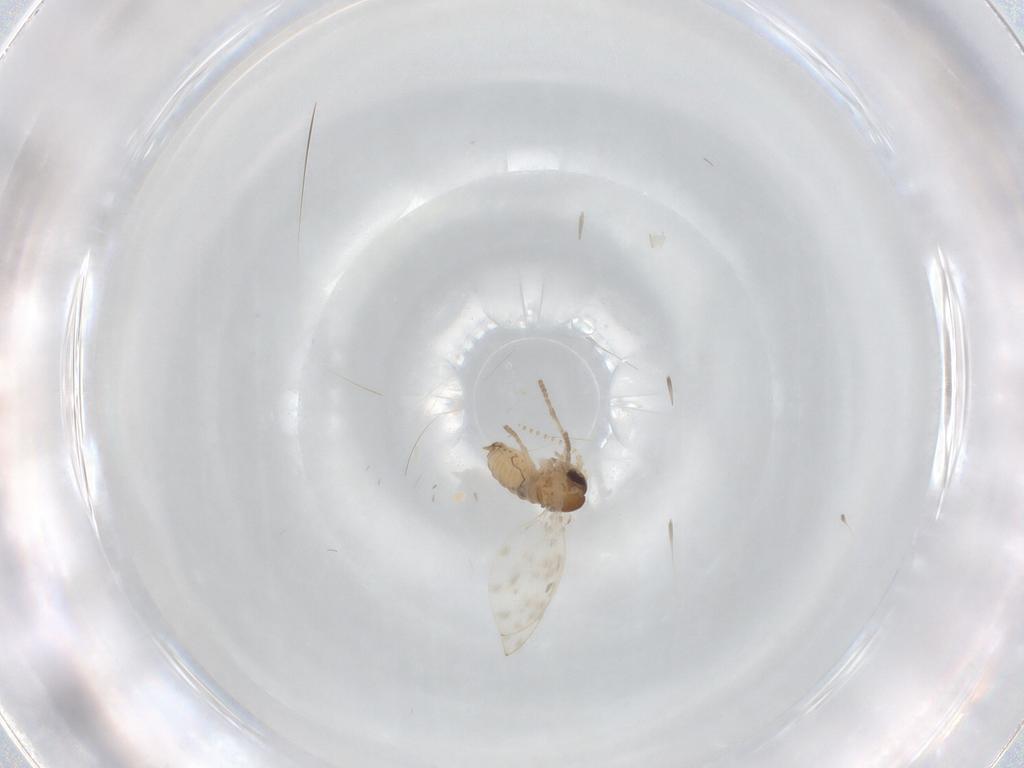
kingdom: Animalia
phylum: Arthropoda
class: Insecta
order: Diptera
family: Psychodidae
